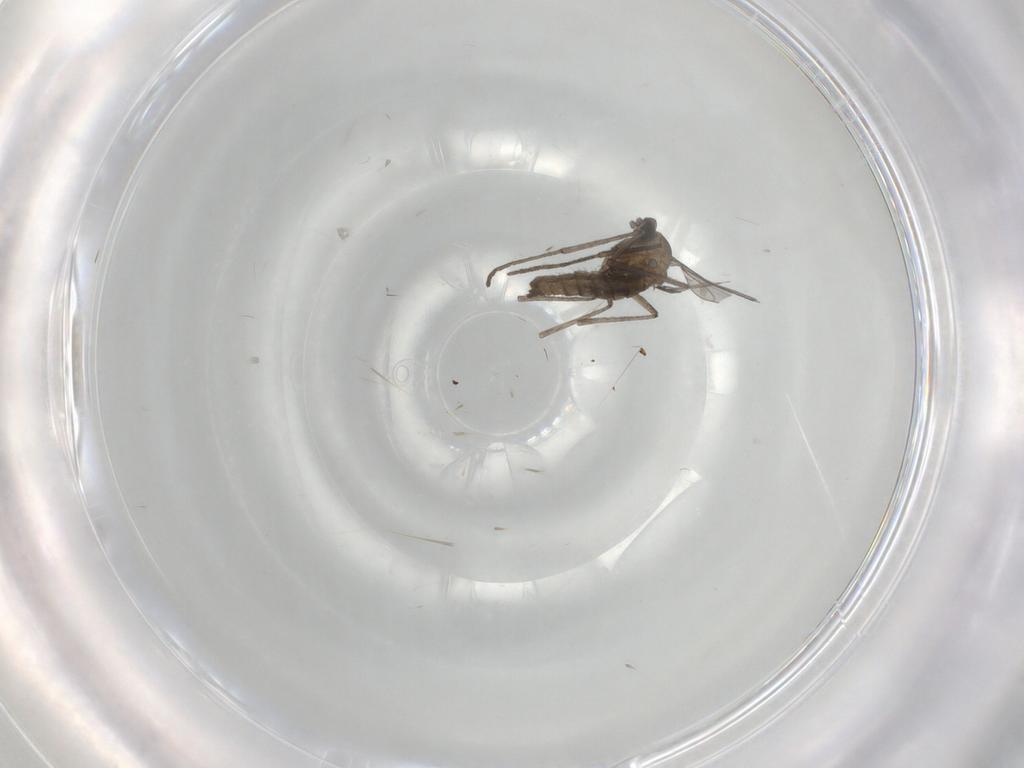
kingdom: Animalia
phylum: Arthropoda
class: Insecta
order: Diptera
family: Cecidomyiidae
